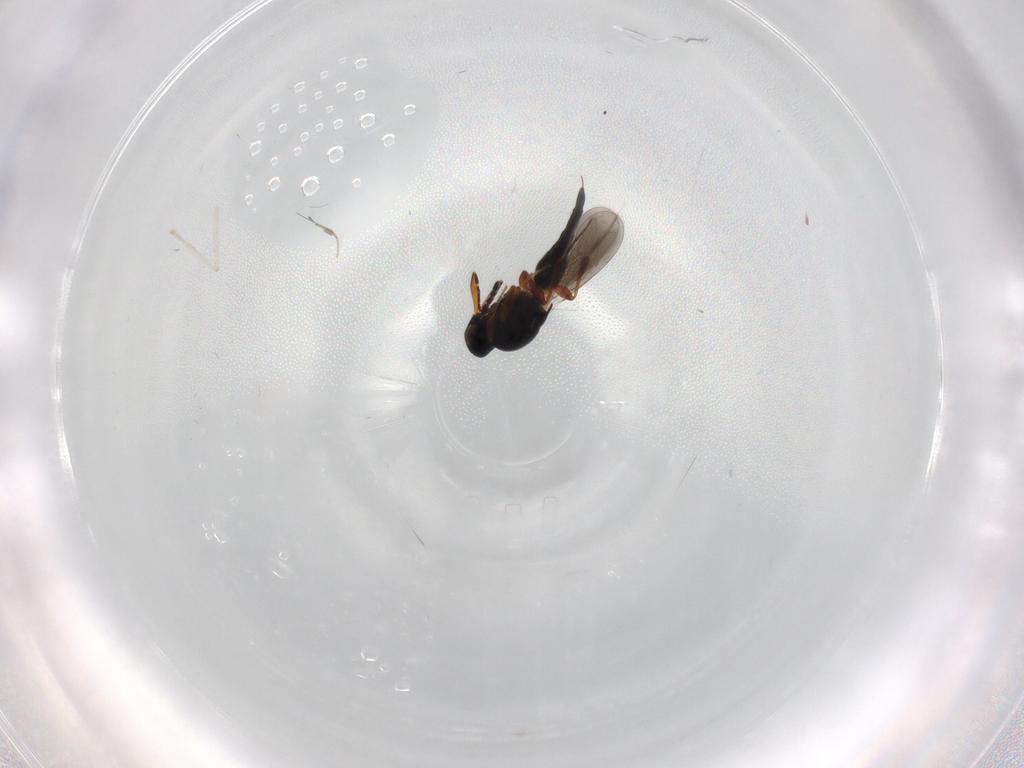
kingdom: Animalia
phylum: Arthropoda
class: Insecta
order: Hymenoptera
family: Platygastridae
